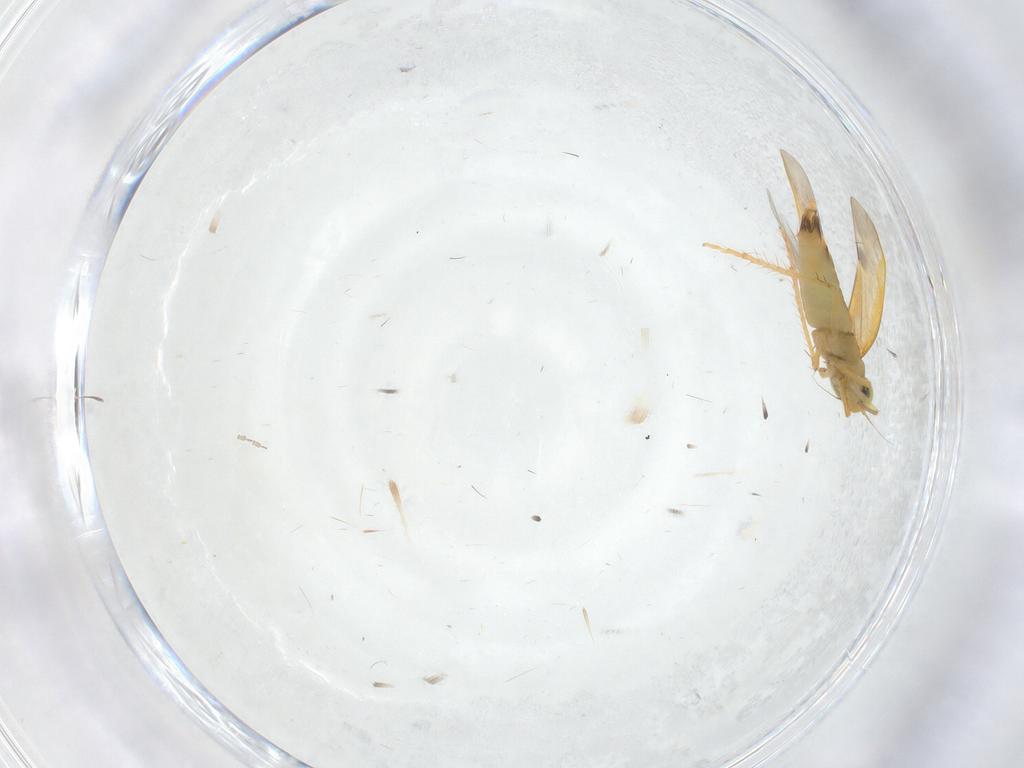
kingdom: Animalia
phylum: Arthropoda
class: Insecta
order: Hemiptera
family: Cicadellidae
